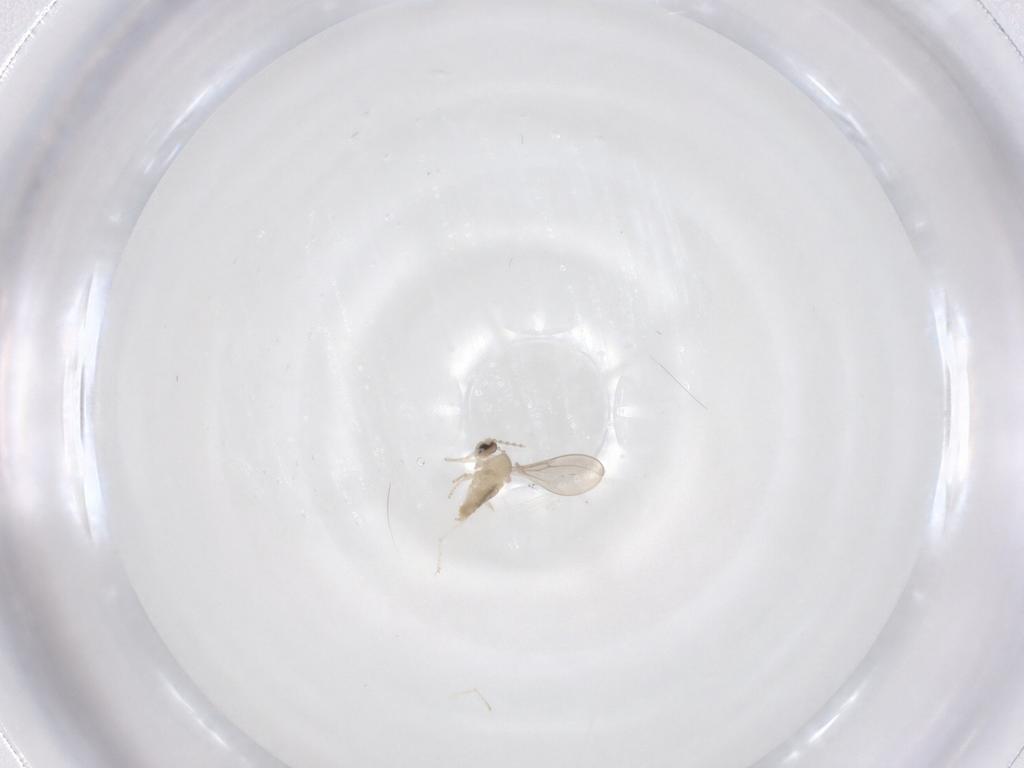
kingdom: Animalia
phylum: Arthropoda
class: Insecta
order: Diptera
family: Cecidomyiidae
